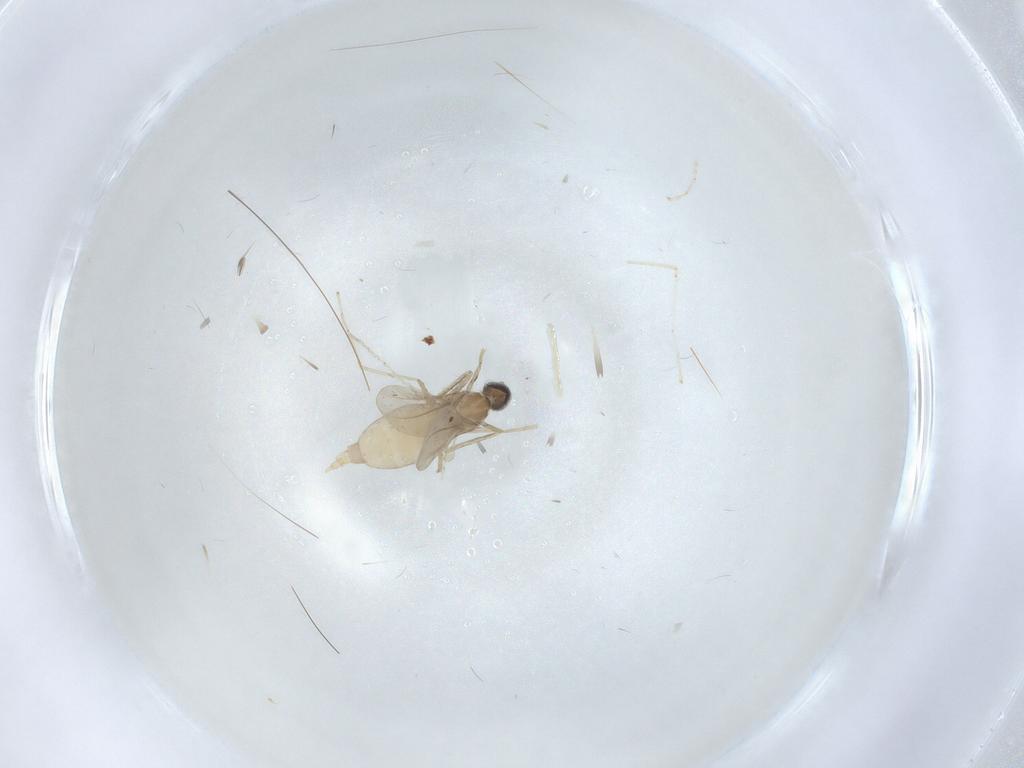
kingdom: Animalia
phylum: Arthropoda
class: Insecta
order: Diptera
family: Cecidomyiidae
